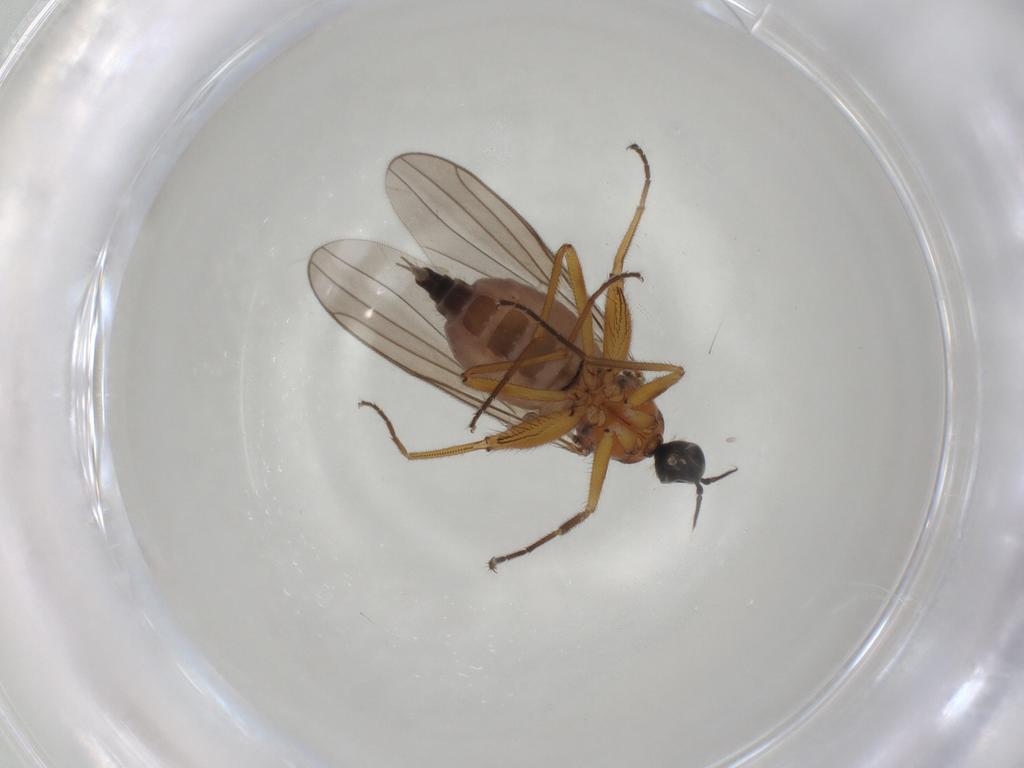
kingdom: Animalia
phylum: Arthropoda
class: Insecta
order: Diptera
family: Hybotidae
